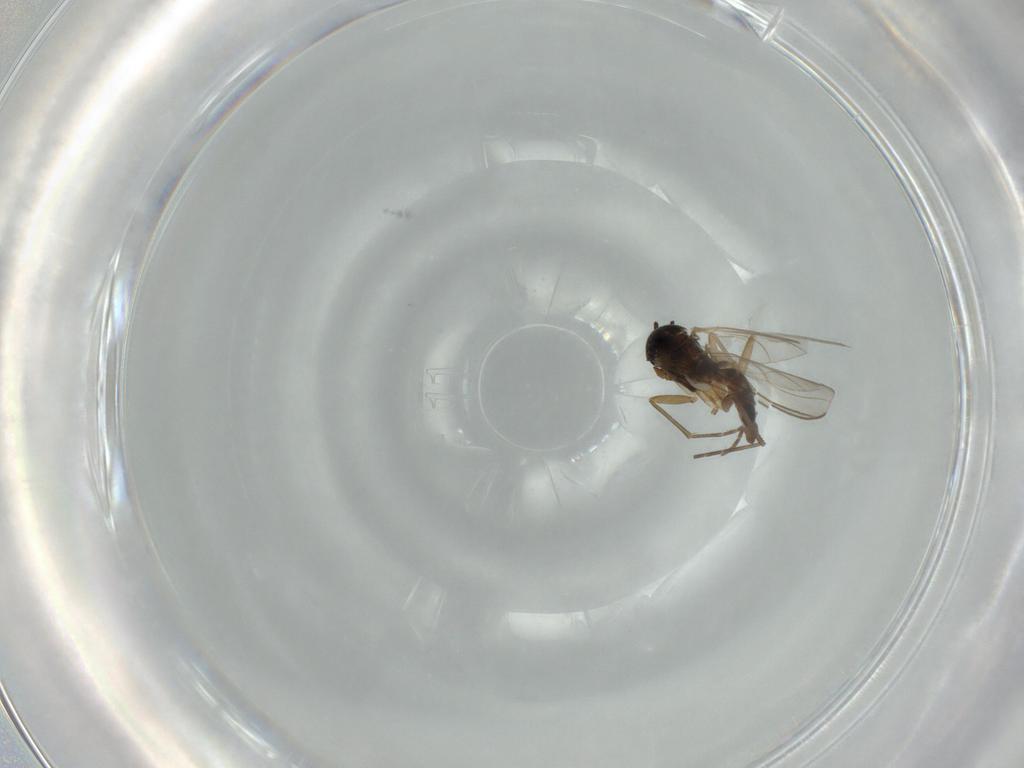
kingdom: Animalia
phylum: Arthropoda
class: Insecta
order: Diptera
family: Sciaridae
